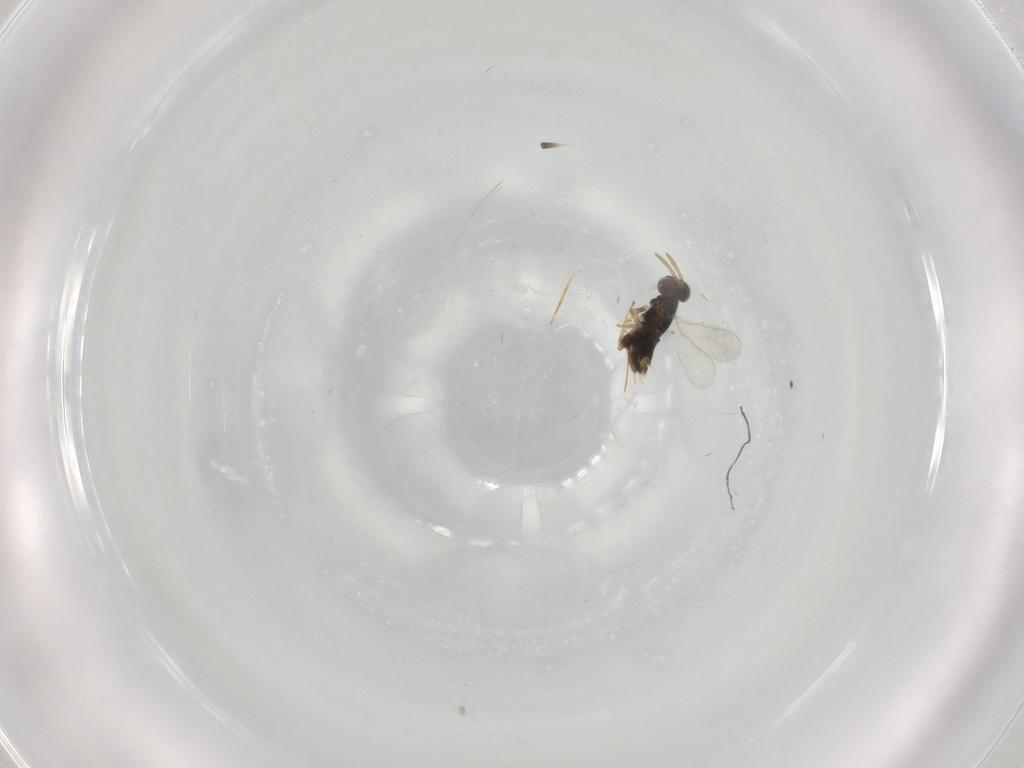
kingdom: Animalia
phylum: Arthropoda
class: Insecta
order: Hymenoptera
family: Aphelinidae
